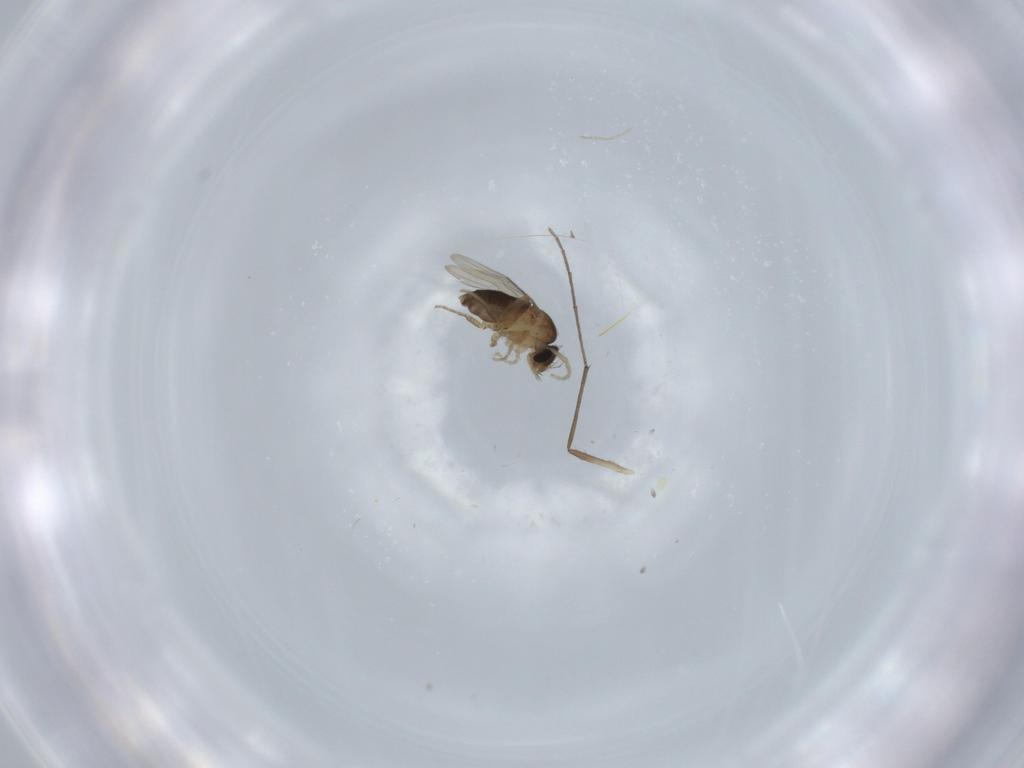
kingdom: Animalia
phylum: Arthropoda
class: Insecta
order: Diptera
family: Phoridae
